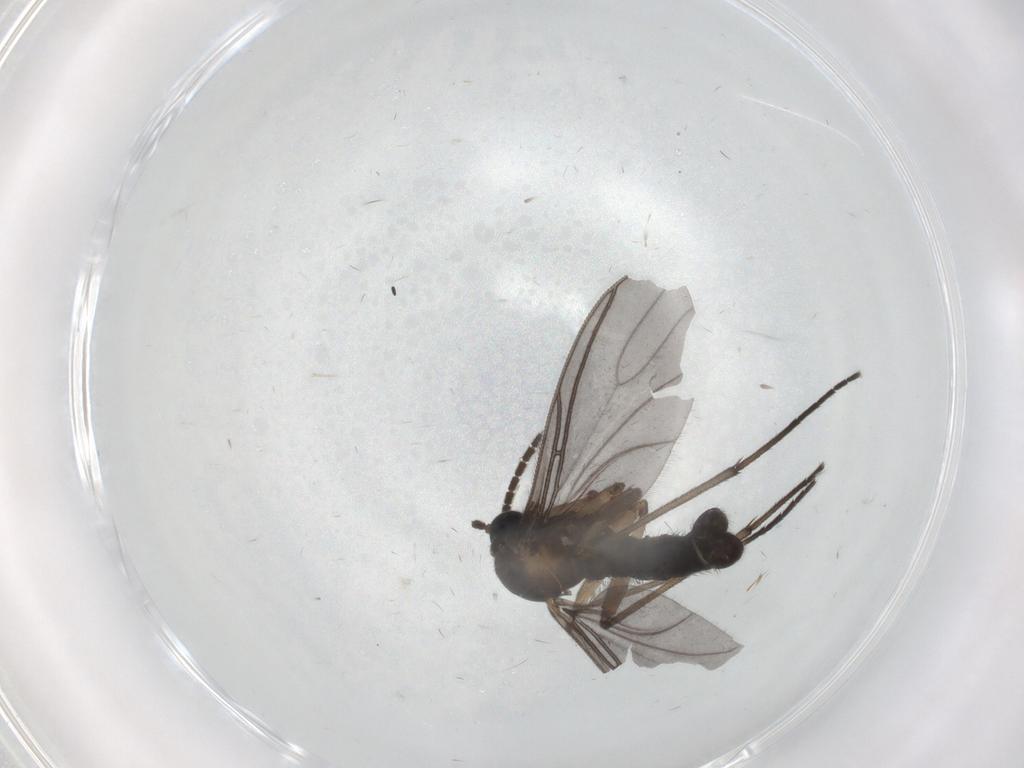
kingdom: Animalia
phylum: Arthropoda
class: Insecta
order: Diptera
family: Sciaridae
